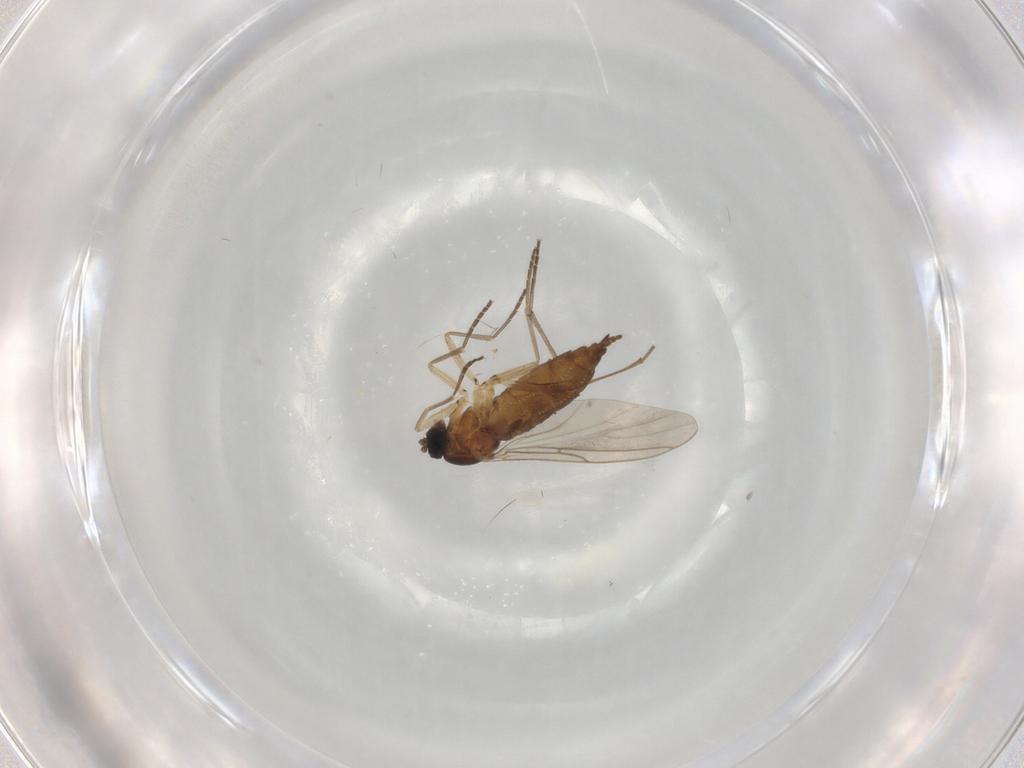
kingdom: Animalia
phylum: Arthropoda
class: Insecta
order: Diptera
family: Sciaridae
